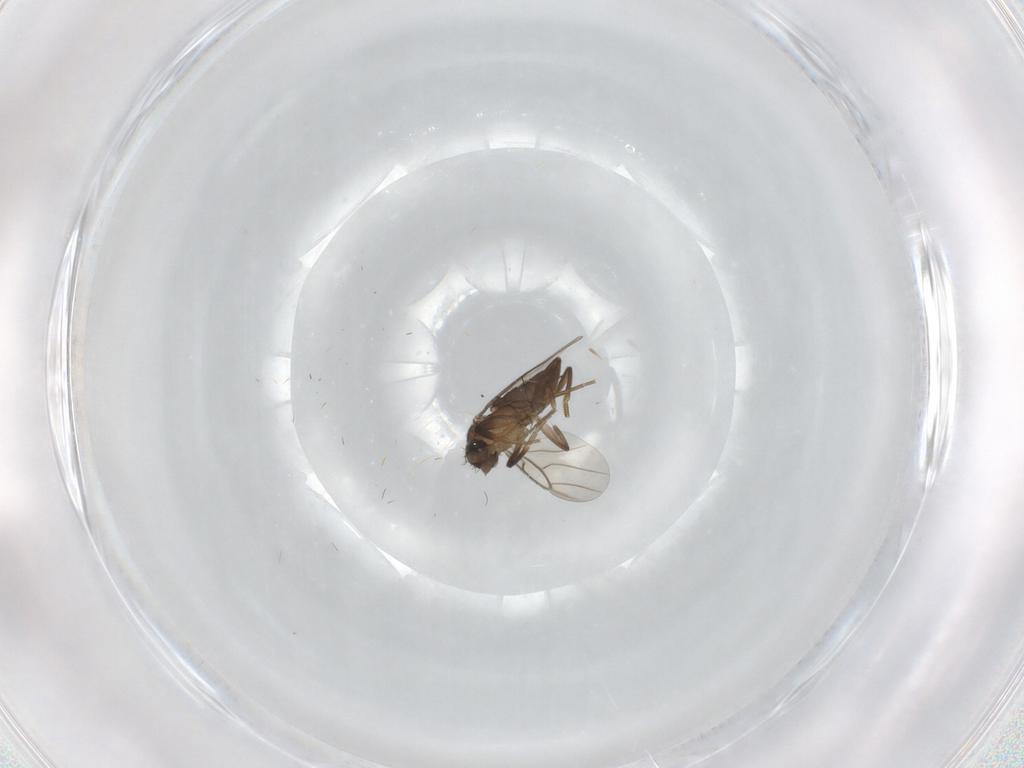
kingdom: Animalia
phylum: Arthropoda
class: Insecta
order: Diptera
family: Phoridae
